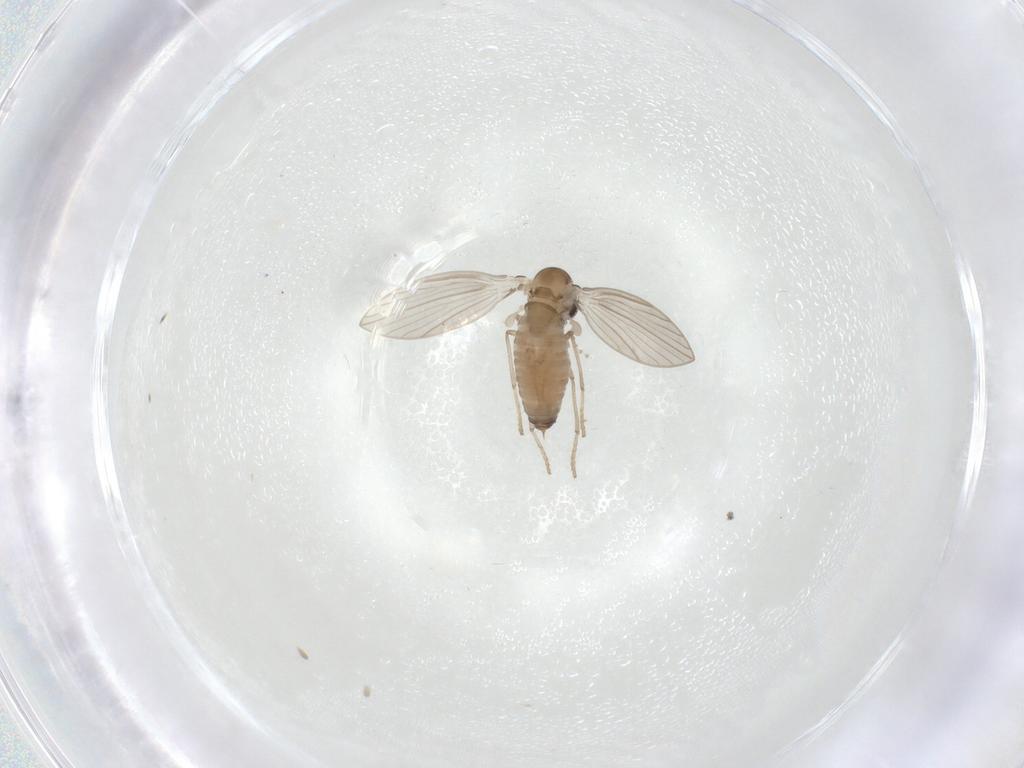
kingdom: Animalia
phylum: Arthropoda
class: Insecta
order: Diptera
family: Psychodidae
